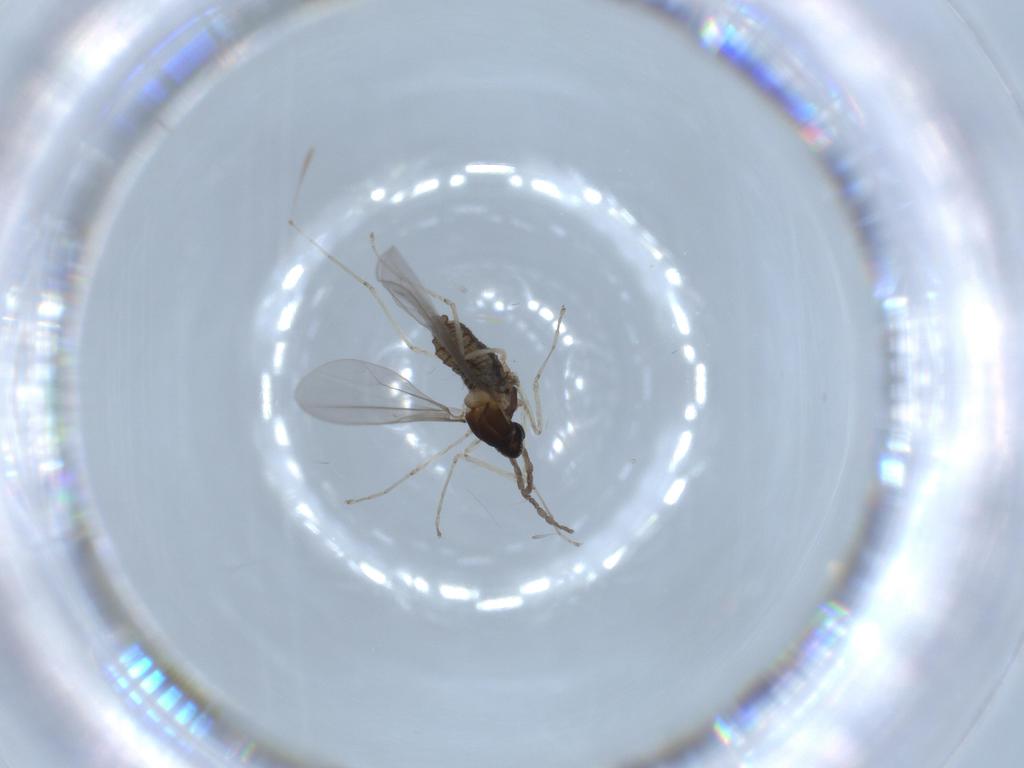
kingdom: Animalia
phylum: Arthropoda
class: Insecta
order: Diptera
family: Cecidomyiidae
